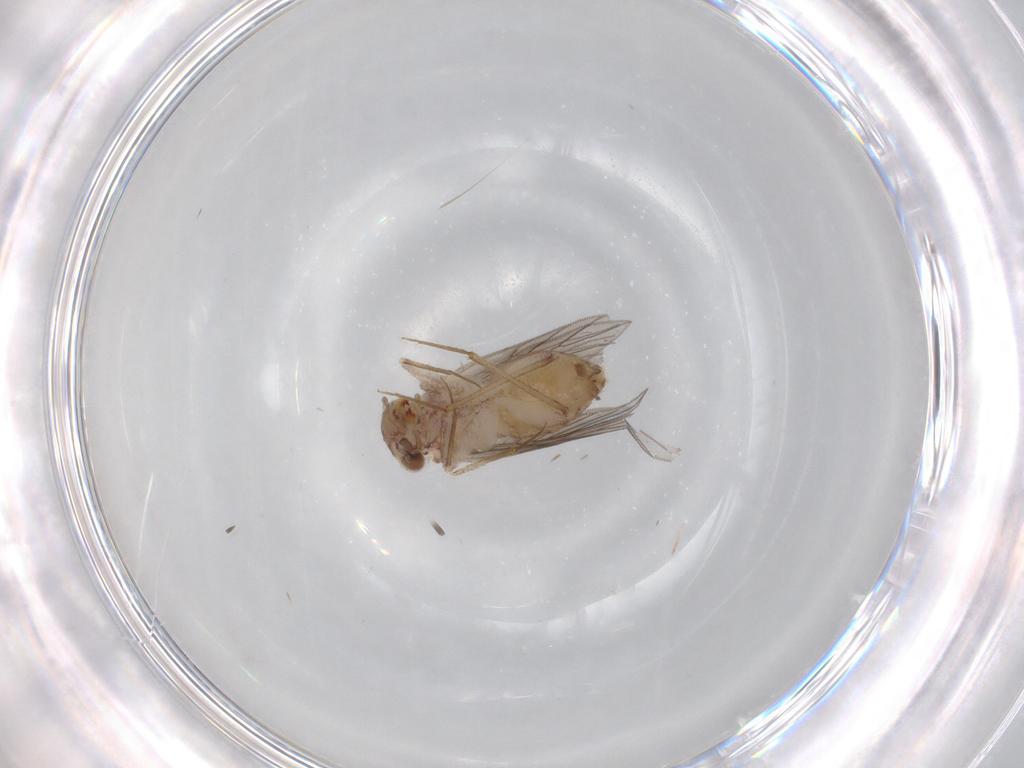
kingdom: Animalia
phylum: Arthropoda
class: Insecta
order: Psocodea
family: Lepidopsocidae
